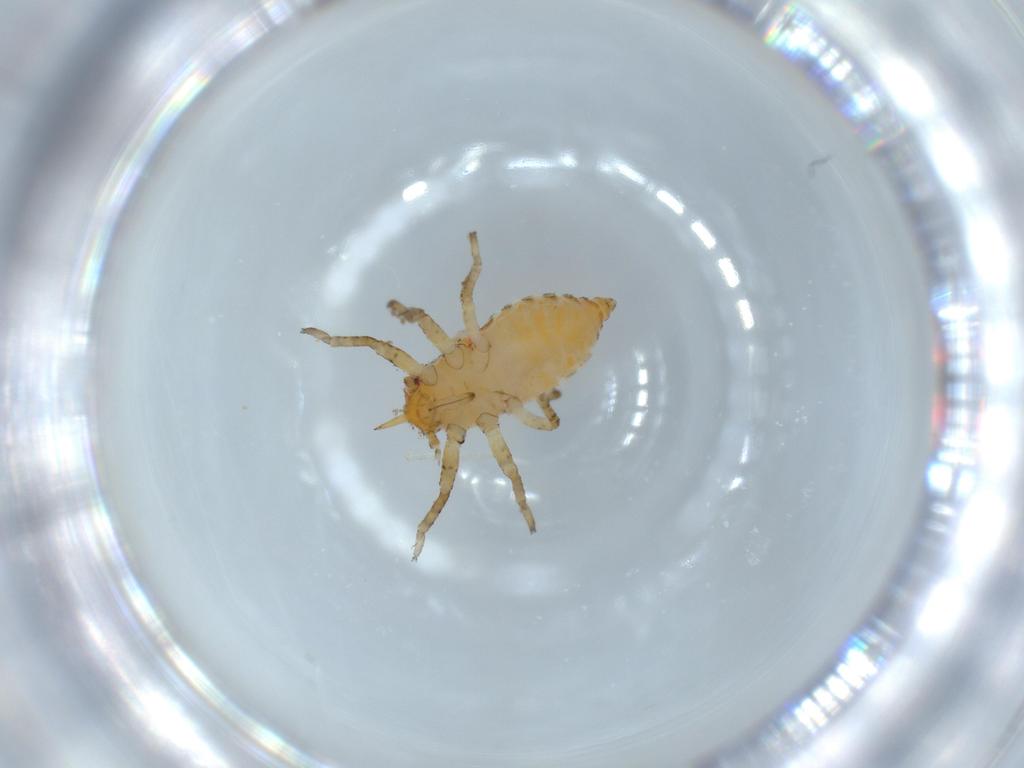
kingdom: Animalia
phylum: Arthropoda
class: Insecta
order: Hemiptera
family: Tettigometridae
